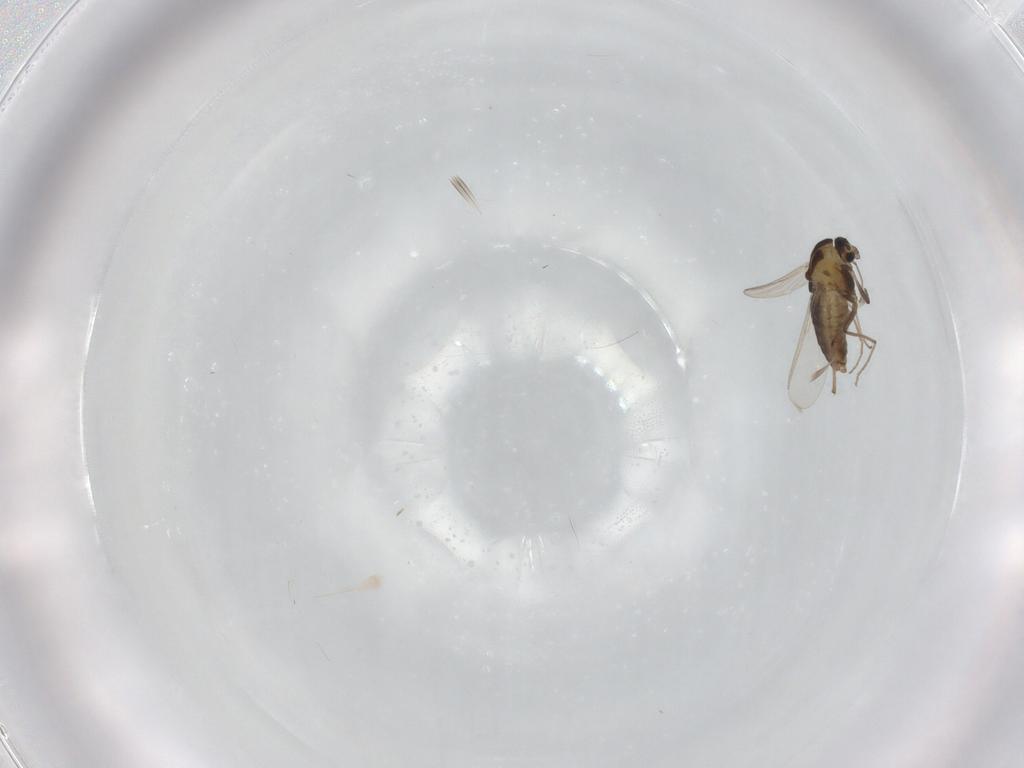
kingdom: Animalia
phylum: Arthropoda
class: Insecta
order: Diptera
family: Chironomidae
